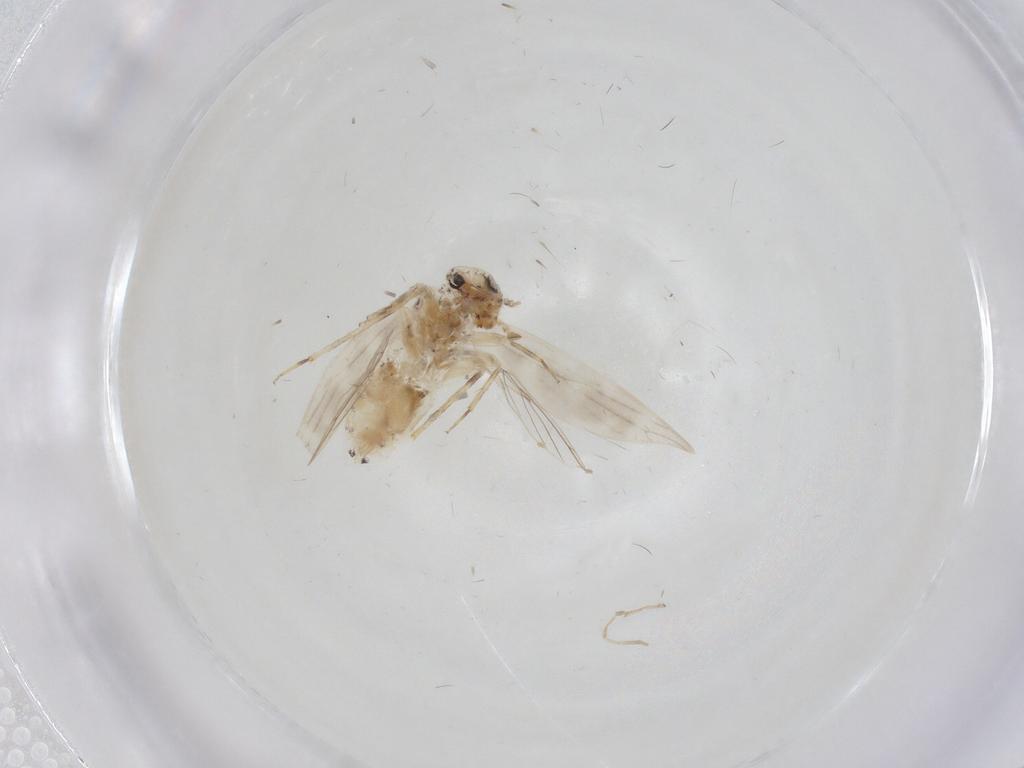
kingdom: Animalia
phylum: Arthropoda
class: Insecta
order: Psocodea
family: Lepidopsocidae
